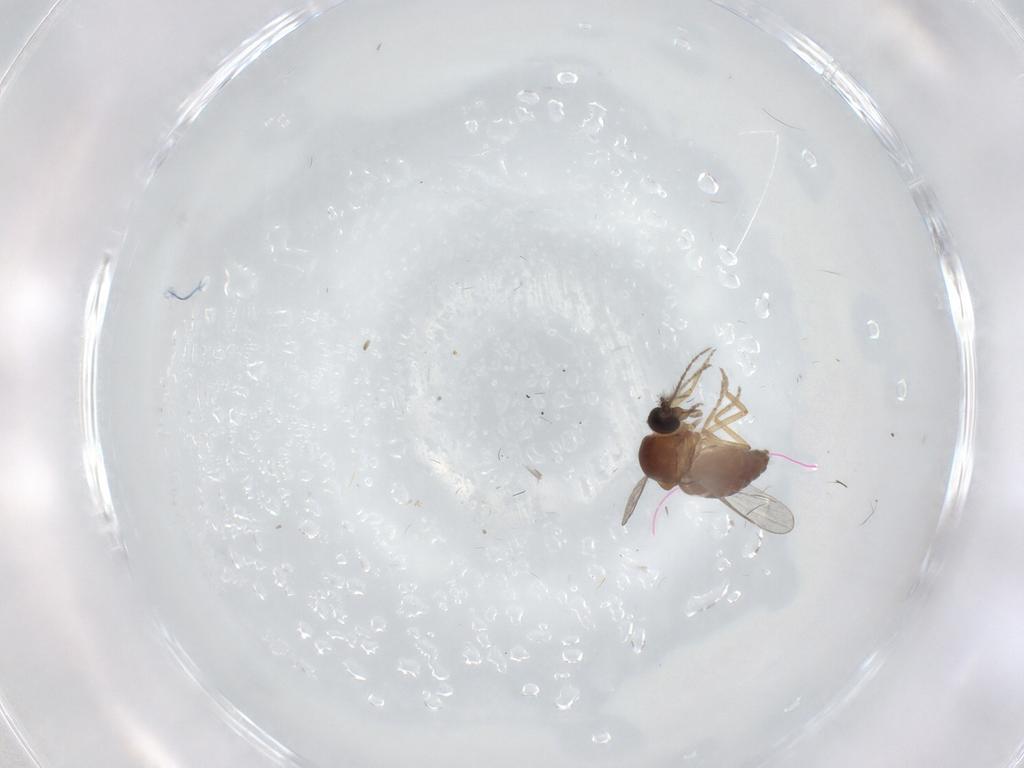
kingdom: Animalia
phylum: Arthropoda
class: Insecta
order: Diptera
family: Ceratopogonidae
